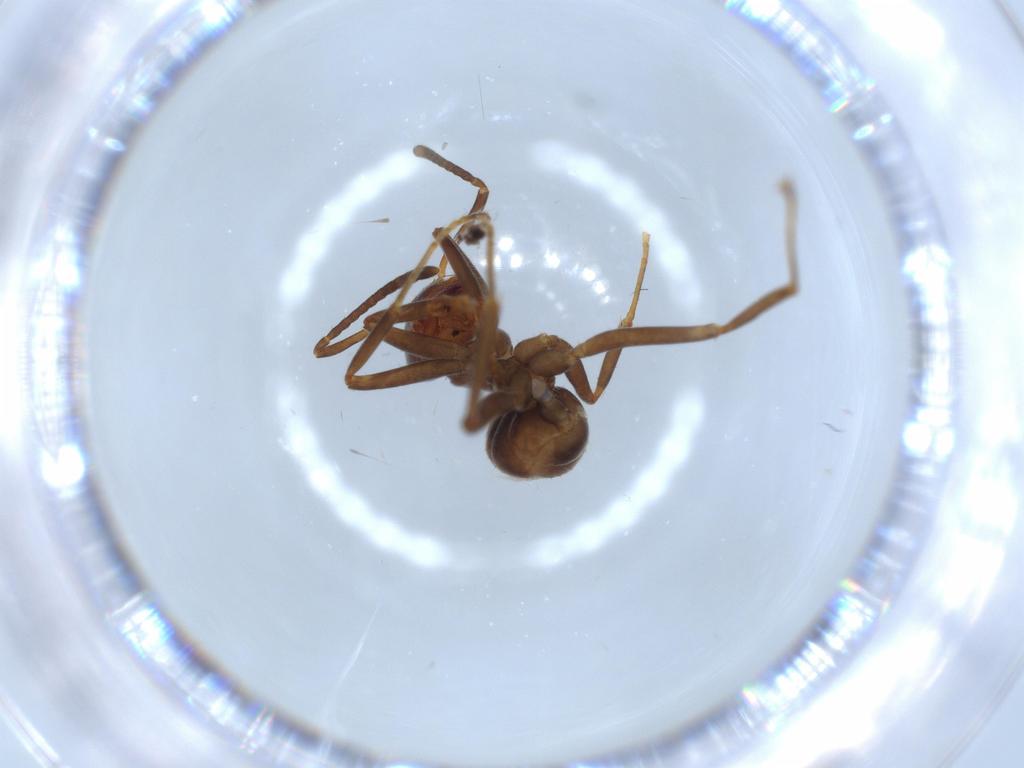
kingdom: Animalia
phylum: Arthropoda
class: Insecta
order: Hymenoptera
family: Formicidae
